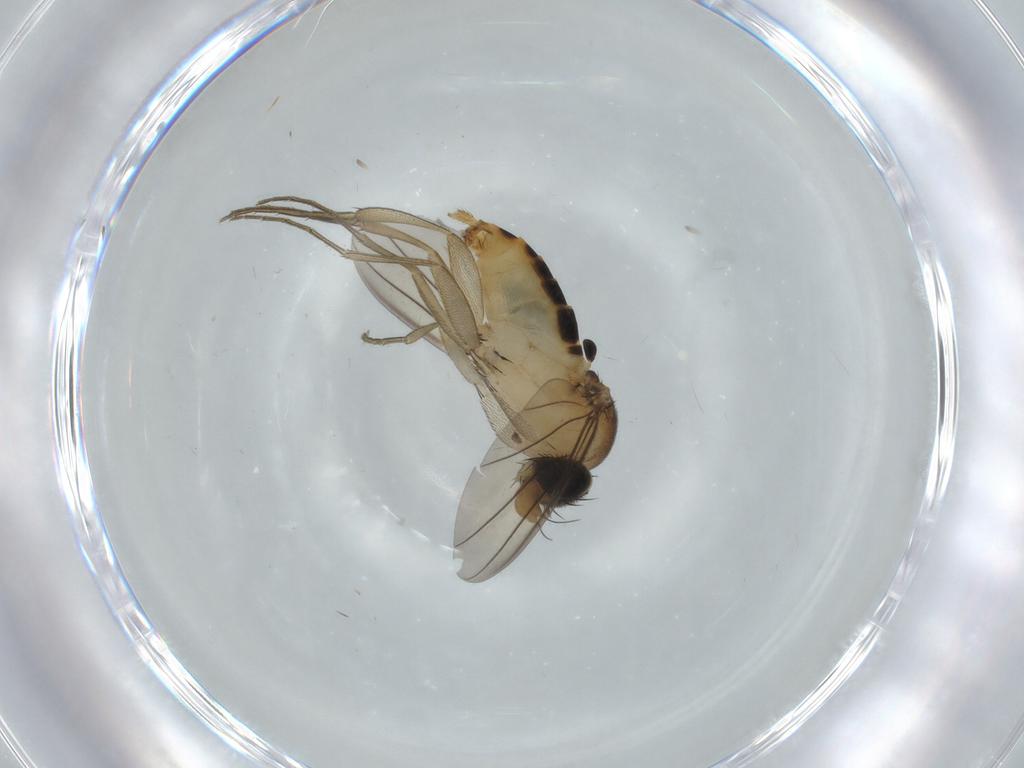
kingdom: Animalia
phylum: Arthropoda
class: Insecta
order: Diptera
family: Phoridae
